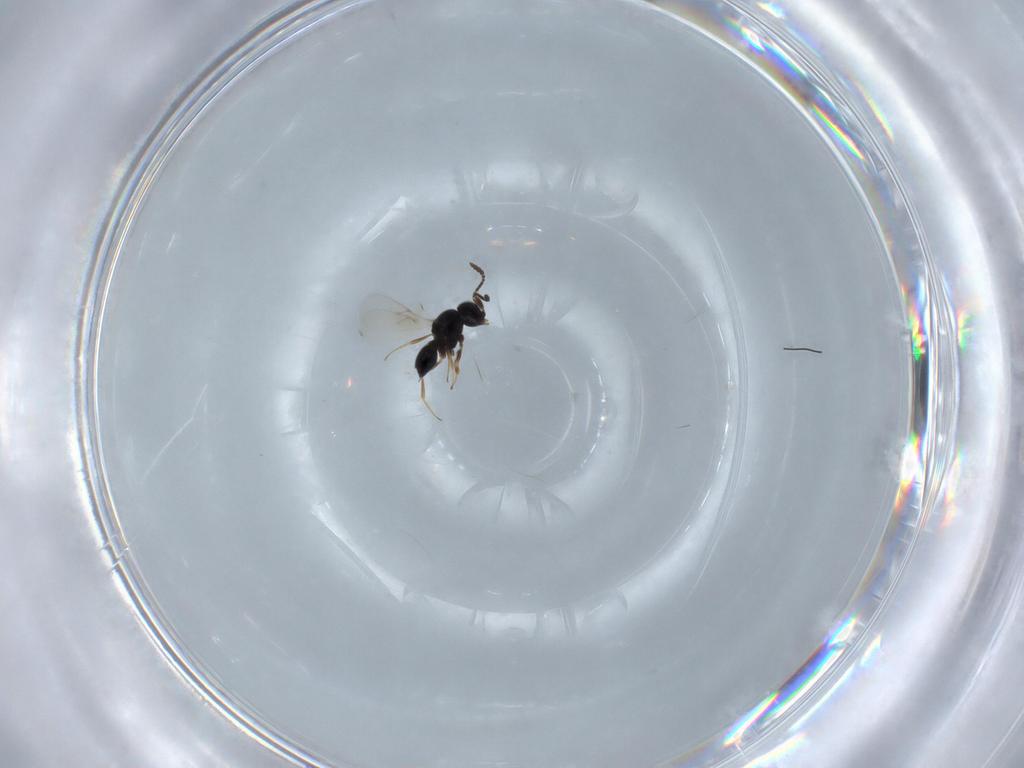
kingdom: Animalia
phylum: Arthropoda
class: Insecta
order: Hymenoptera
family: Scelionidae
